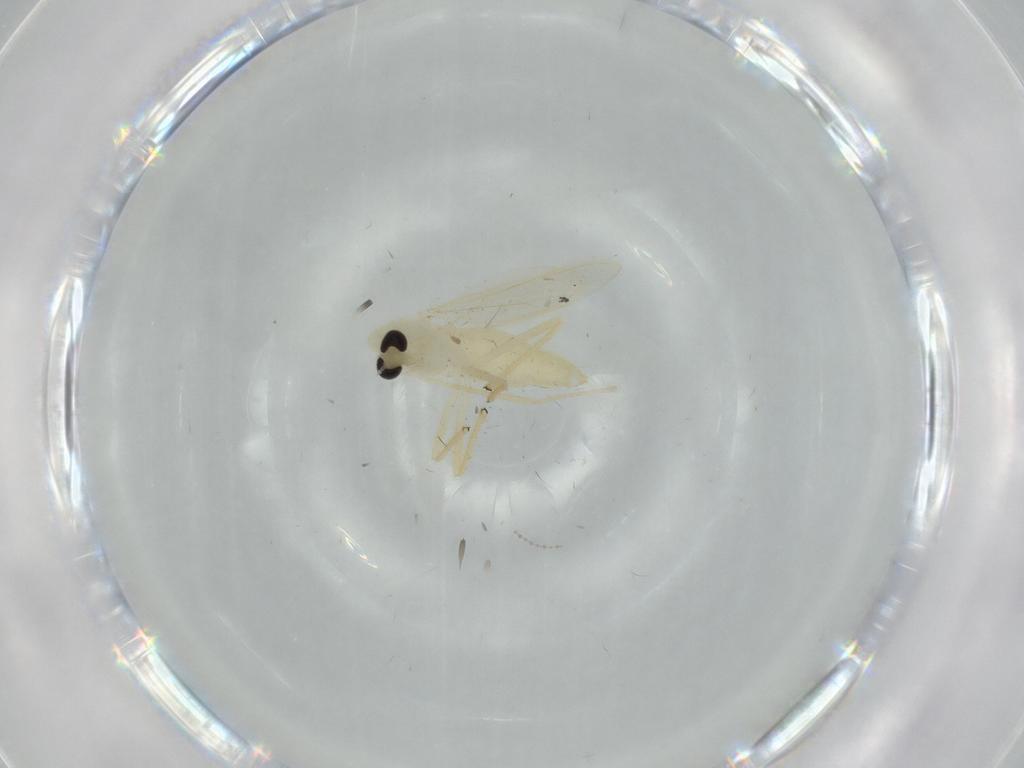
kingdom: Animalia
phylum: Arthropoda
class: Insecta
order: Diptera
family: Chironomidae
